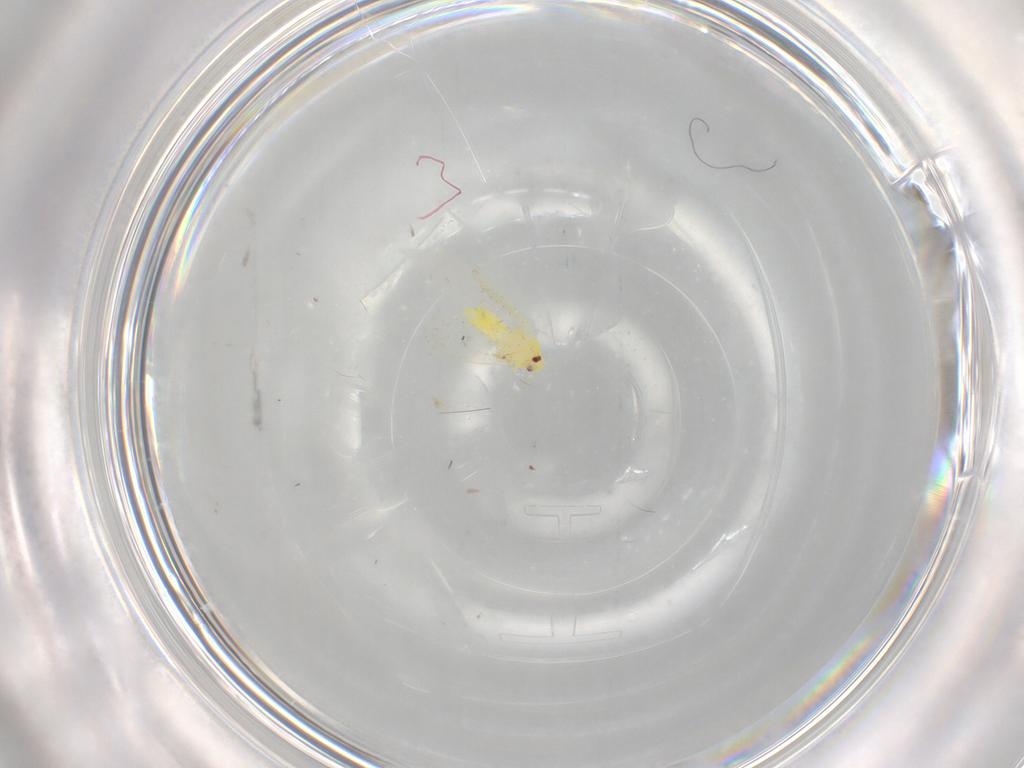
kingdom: Animalia
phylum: Arthropoda
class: Insecta
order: Hemiptera
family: Aleyrodidae
